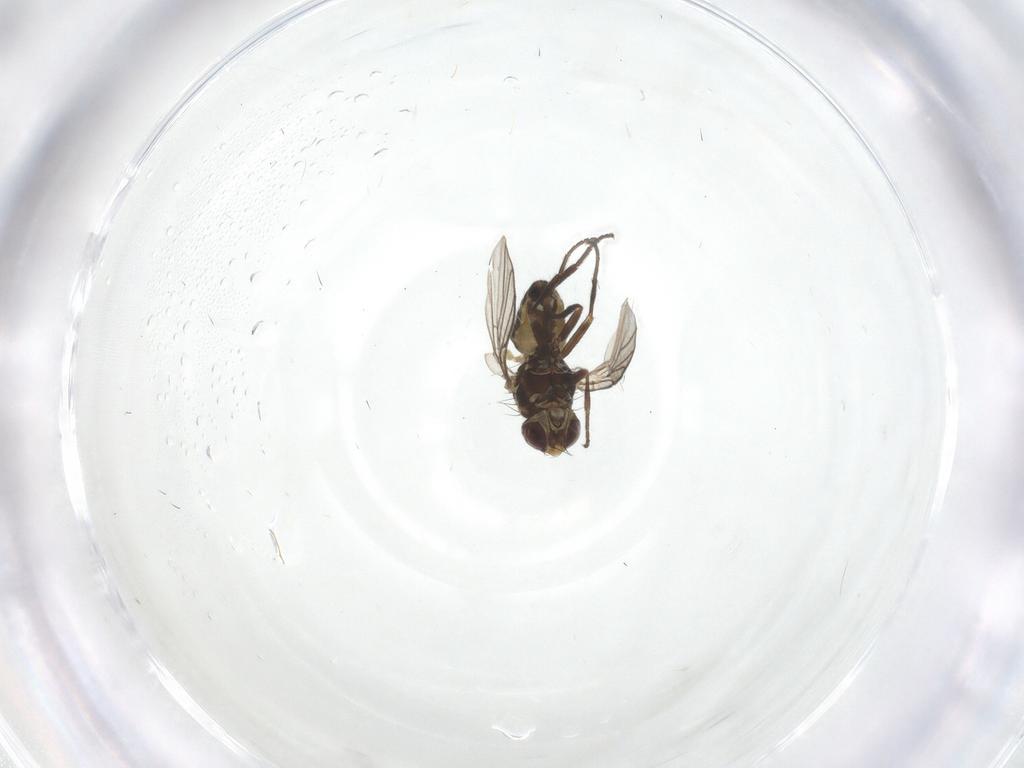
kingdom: Animalia
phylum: Arthropoda
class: Insecta
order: Diptera
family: Agromyzidae
